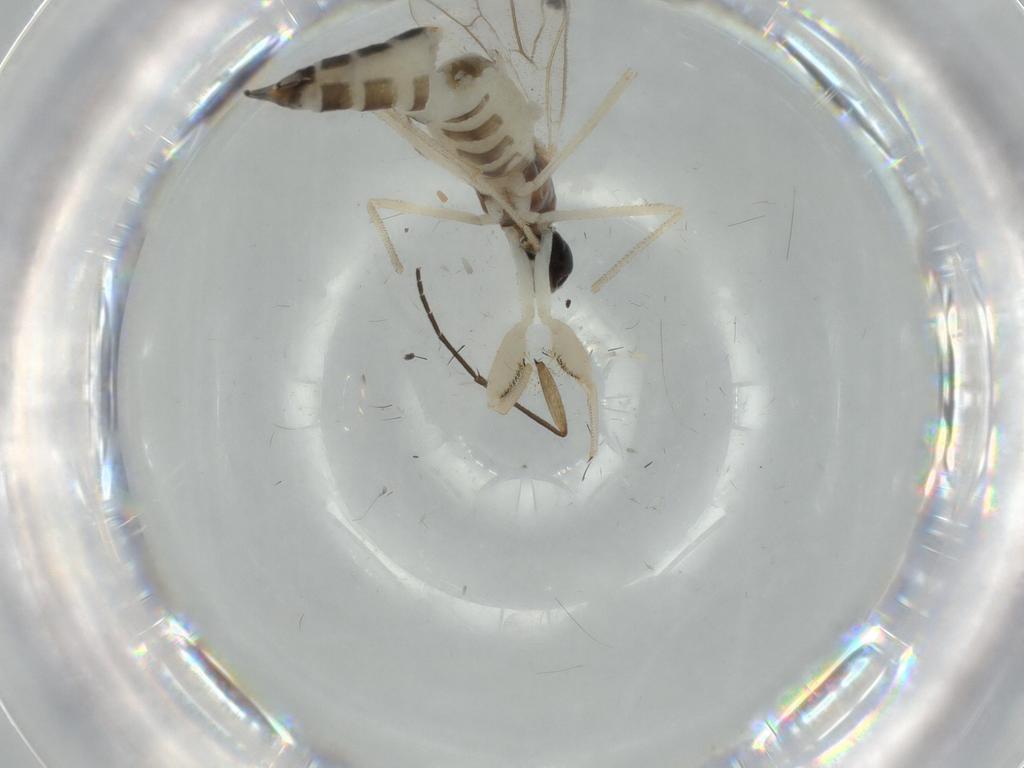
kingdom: Animalia
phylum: Arthropoda
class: Insecta
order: Diptera
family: Empididae
